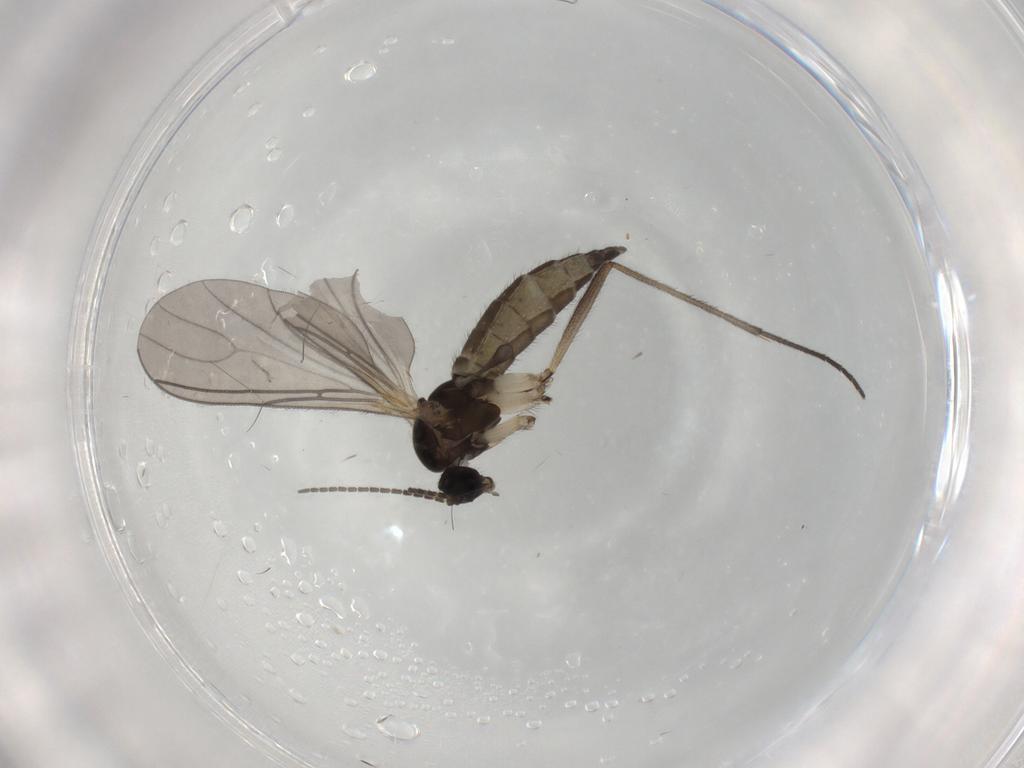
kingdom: Animalia
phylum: Arthropoda
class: Insecta
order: Diptera
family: Sciaridae
